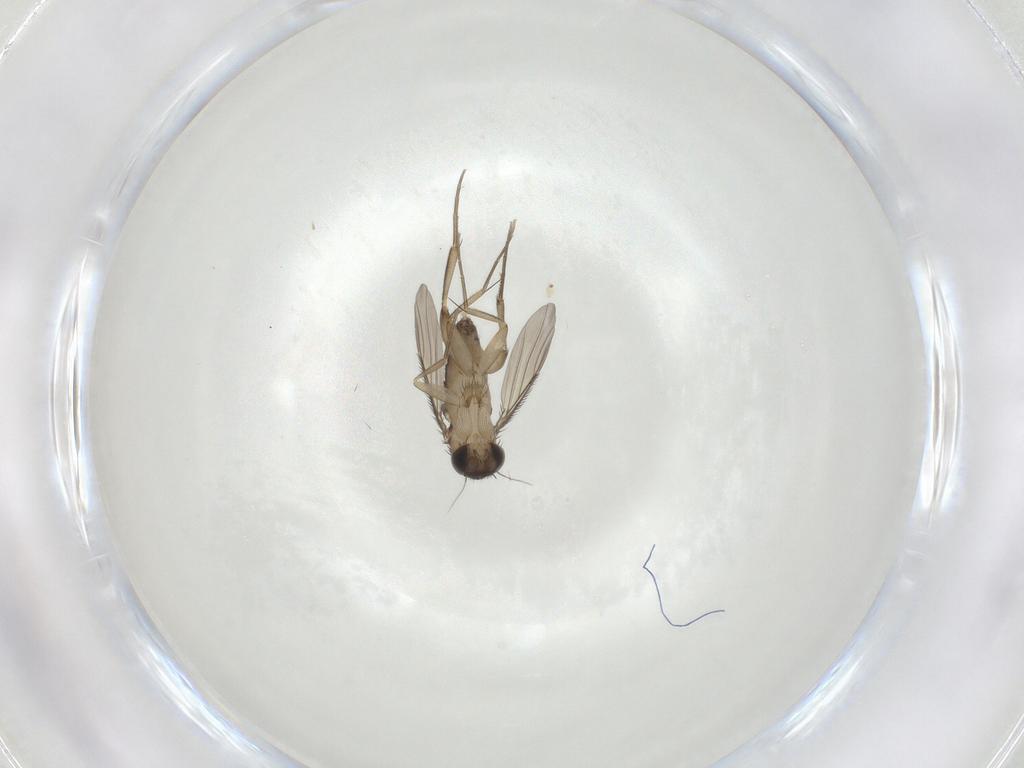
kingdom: Animalia
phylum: Arthropoda
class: Insecta
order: Diptera
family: Phoridae
